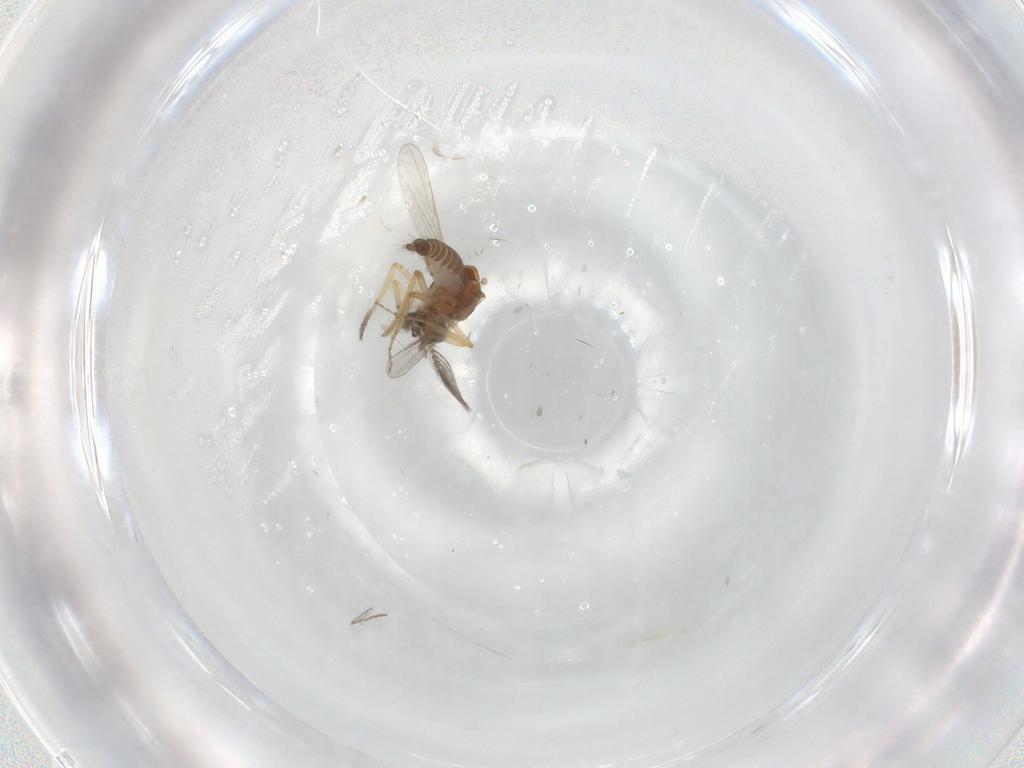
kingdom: Animalia
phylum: Arthropoda
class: Insecta
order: Diptera
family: Ceratopogonidae
